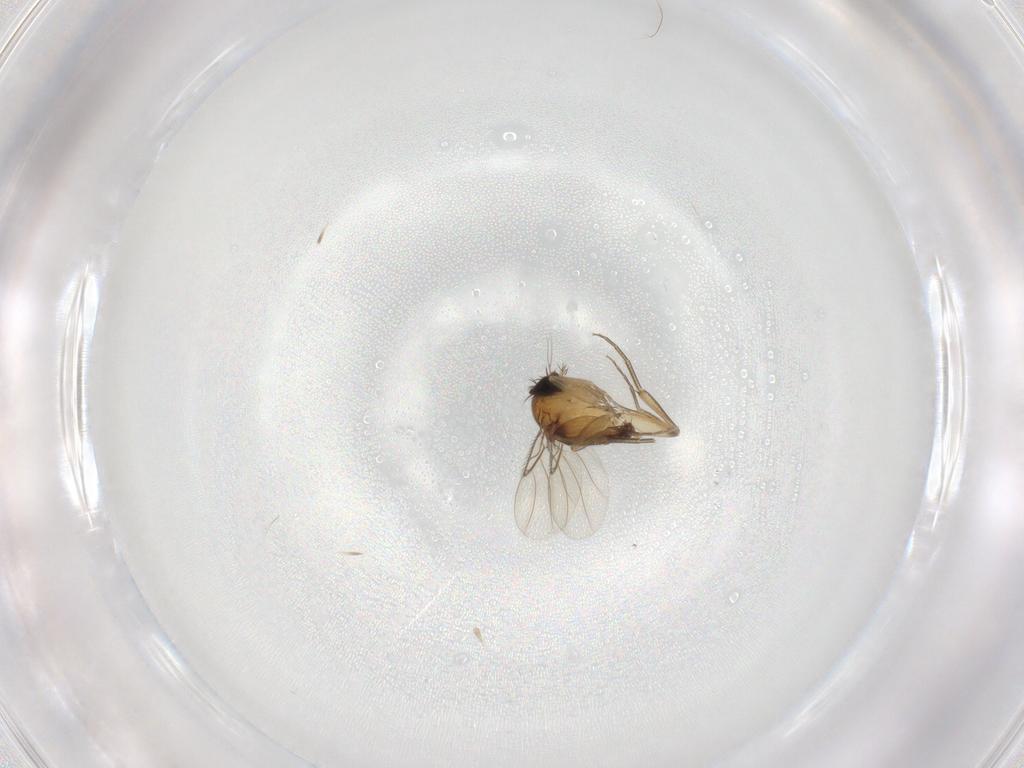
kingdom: Animalia
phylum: Arthropoda
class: Insecta
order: Diptera
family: Phoridae
